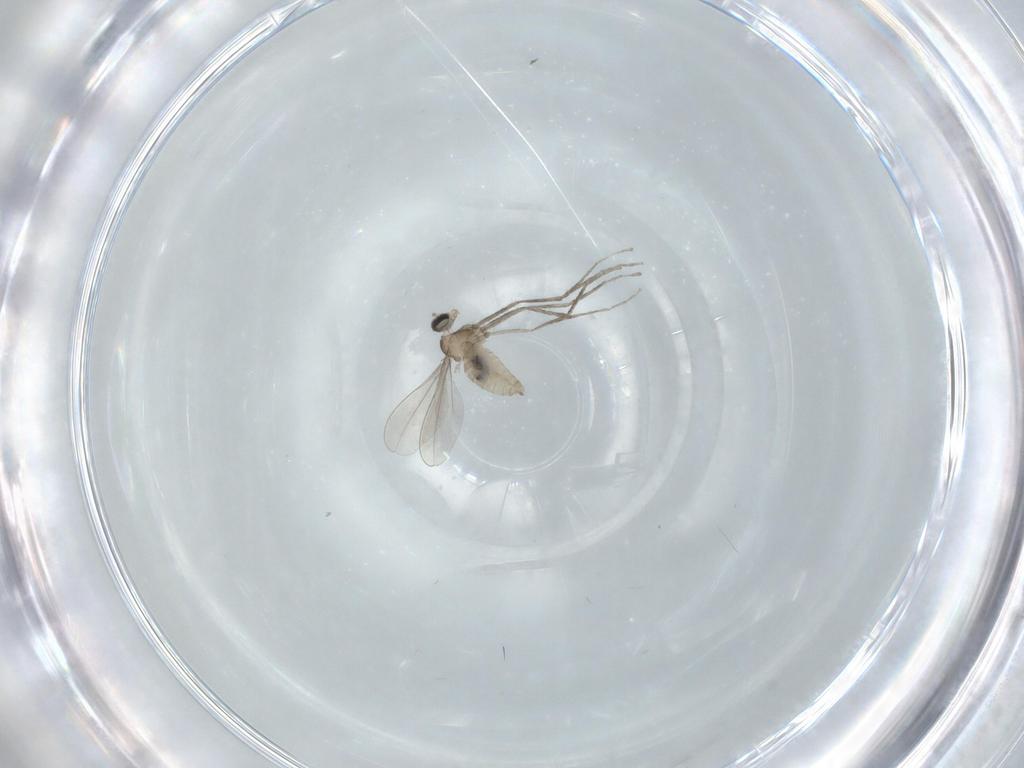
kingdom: Animalia
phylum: Arthropoda
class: Insecta
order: Diptera
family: Cecidomyiidae
